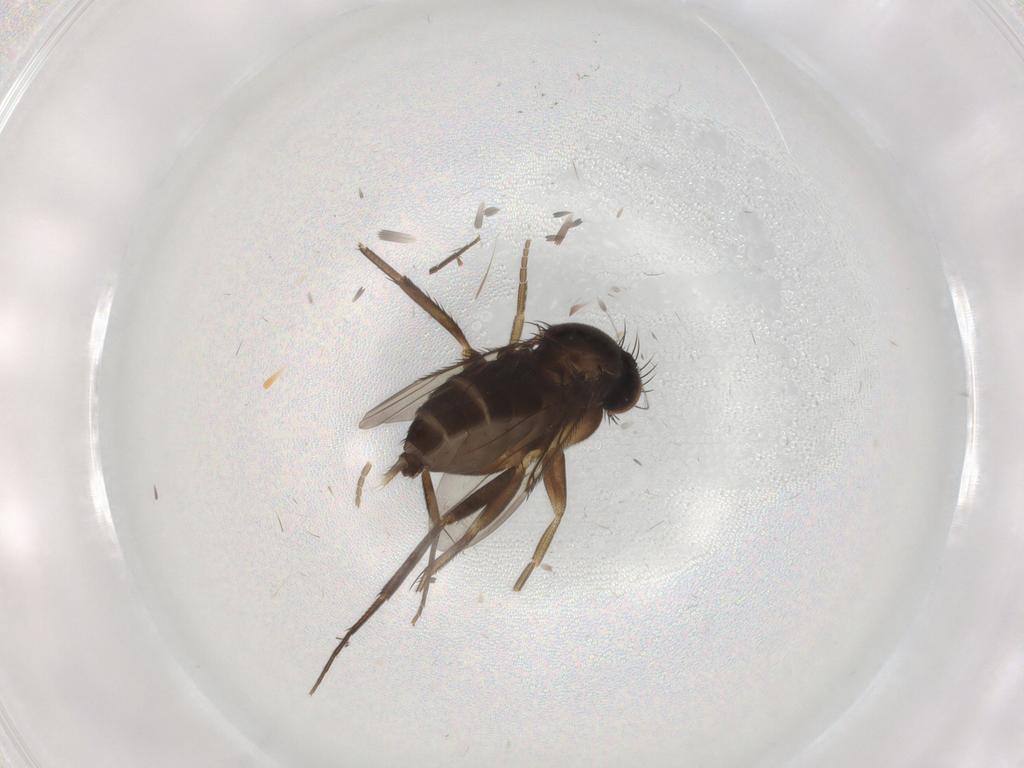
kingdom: Animalia
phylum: Arthropoda
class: Insecta
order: Diptera
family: Phoridae
